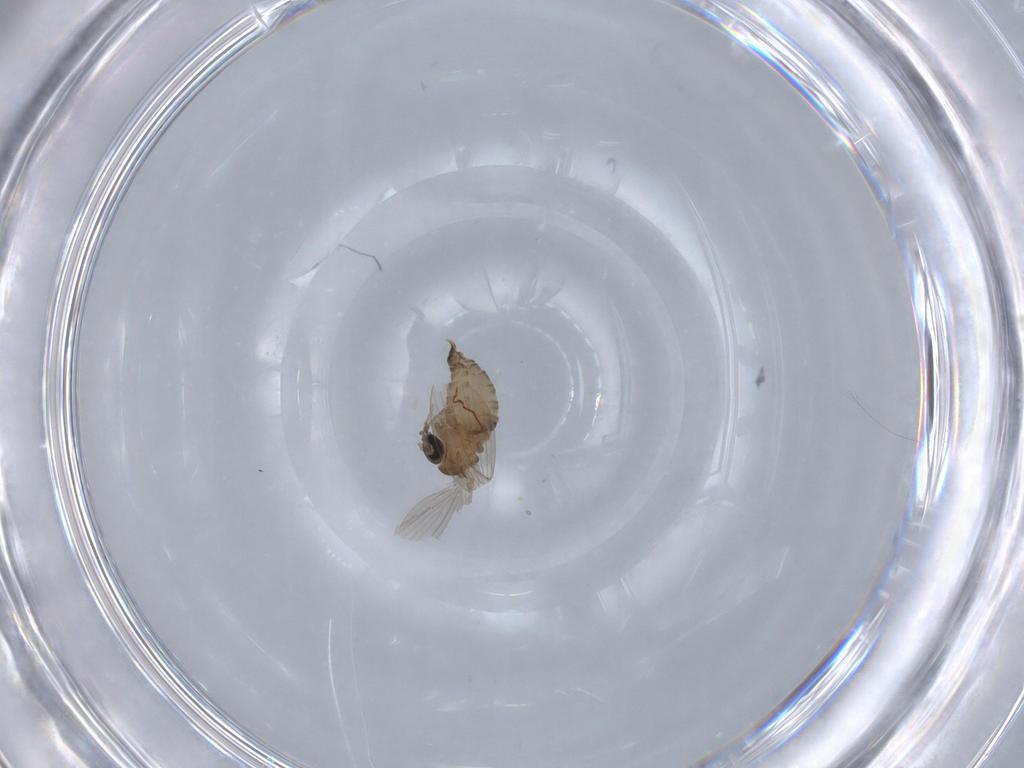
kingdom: Animalia
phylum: Arthropoda
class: Insecta
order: Diptera
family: Psychodidae
